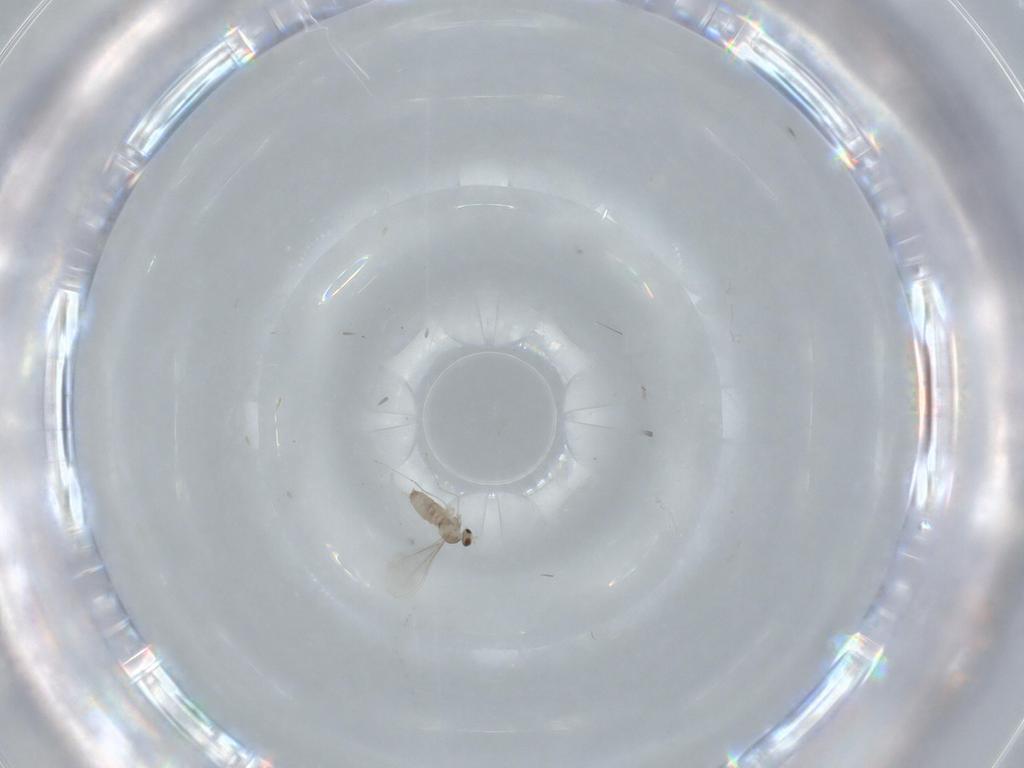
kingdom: Animalia
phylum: Arthropoda
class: Insecta
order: Diptera
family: Cecidomyiidae
